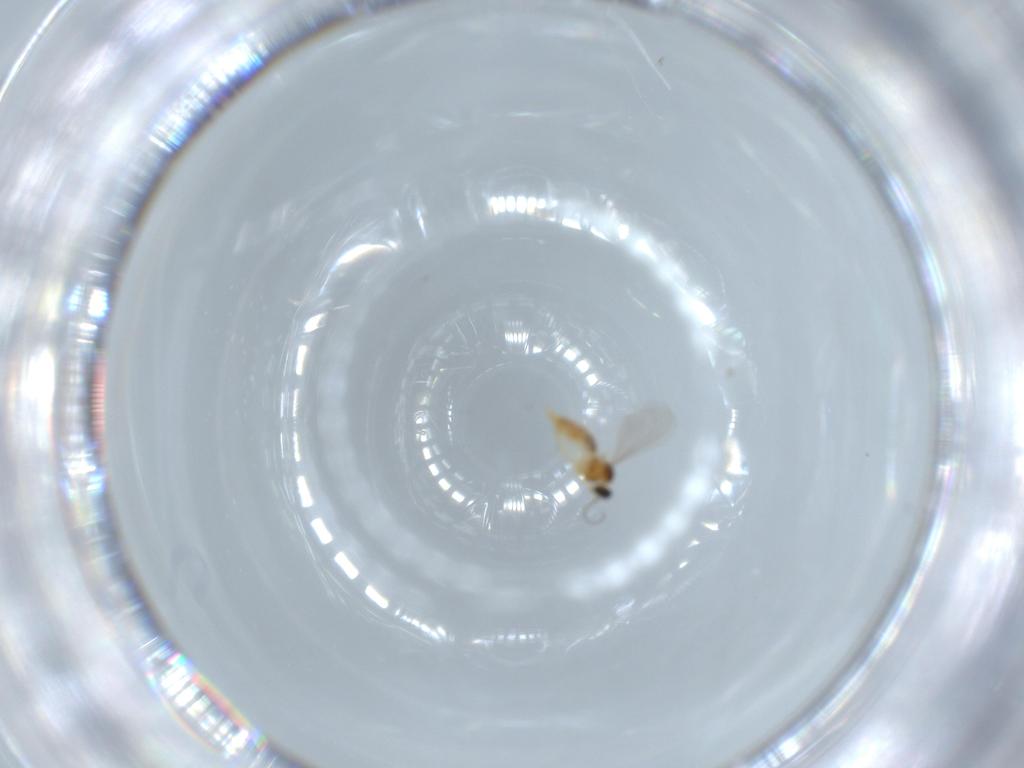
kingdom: Animalia
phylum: Arthropoda
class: Insecta
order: Diptera
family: Cecidomyiidae
